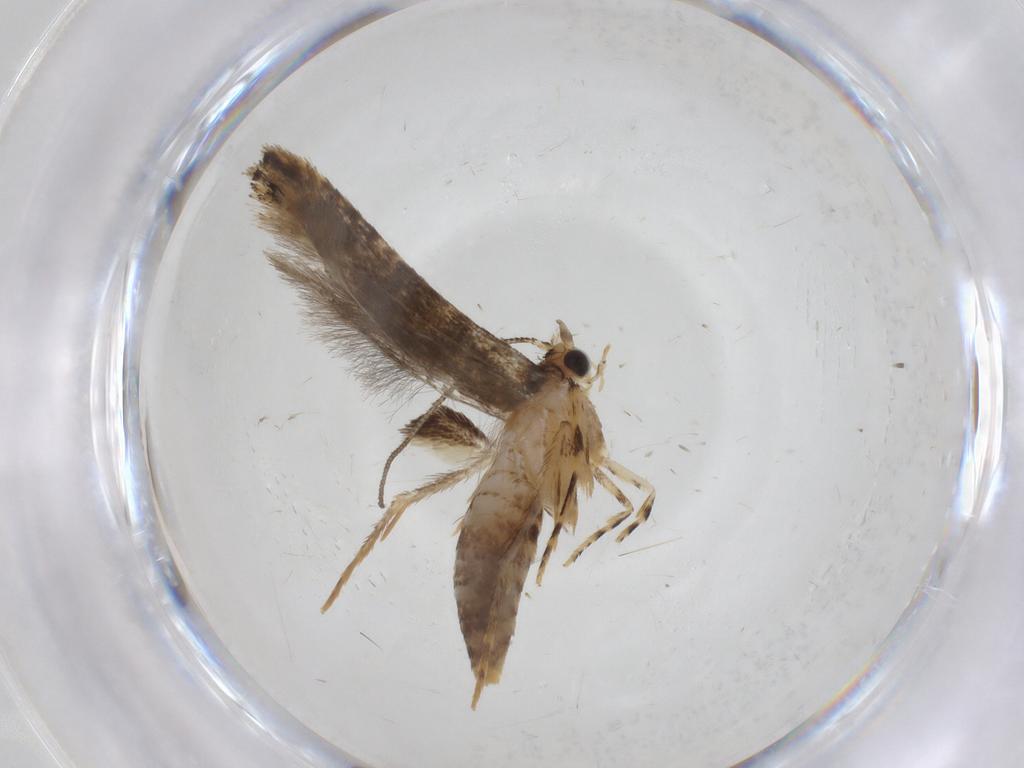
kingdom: Animalia
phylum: Arthropoda
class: Insecta
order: Lepidoptera
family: Tineidae
